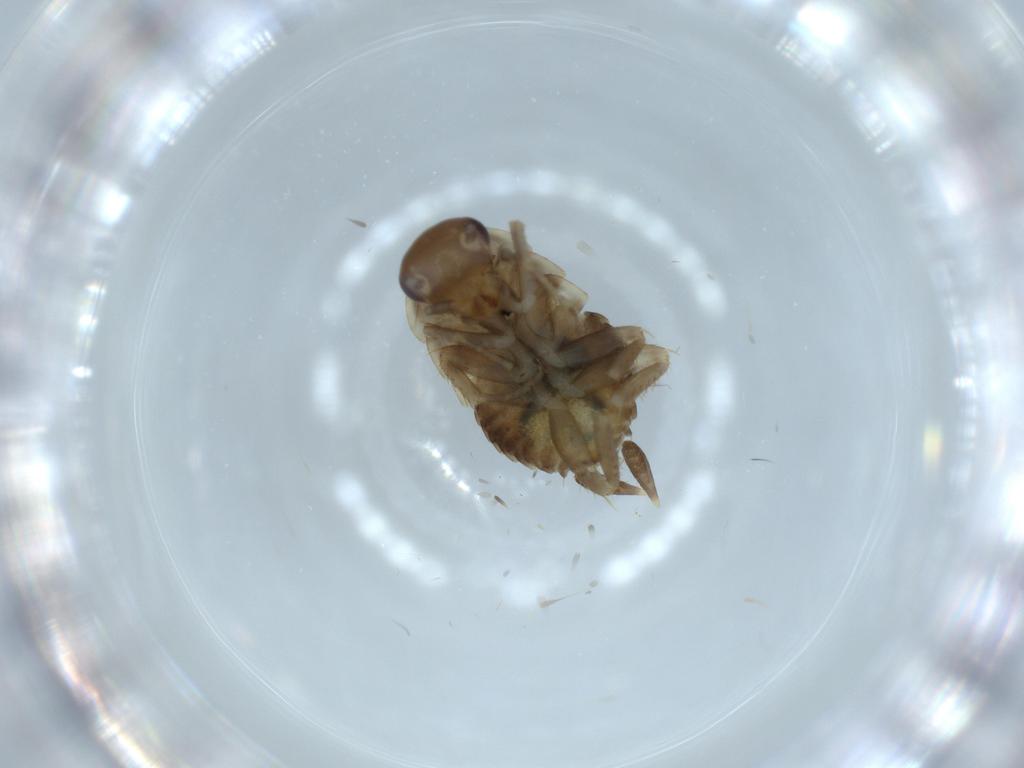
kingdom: Animalia
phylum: Arthropoda
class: Insecta
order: Blattodea
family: Ectobiidae
